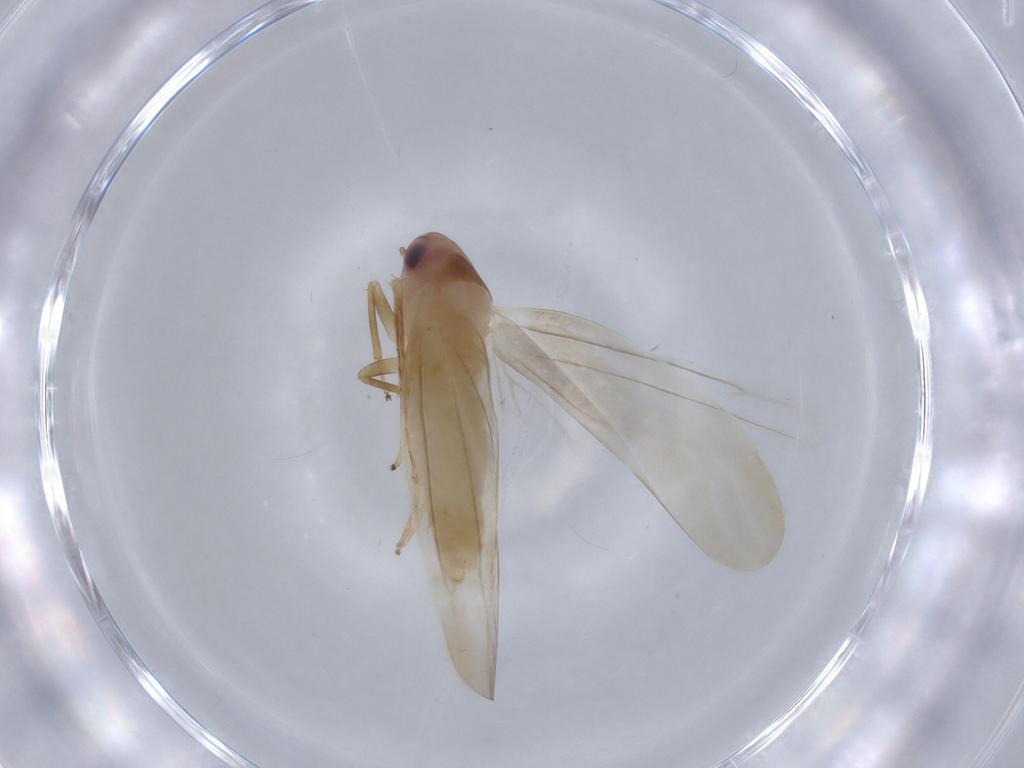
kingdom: Animalia
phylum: Arthropoda
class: Insecta
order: Hemiptera
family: Cicadellidae
